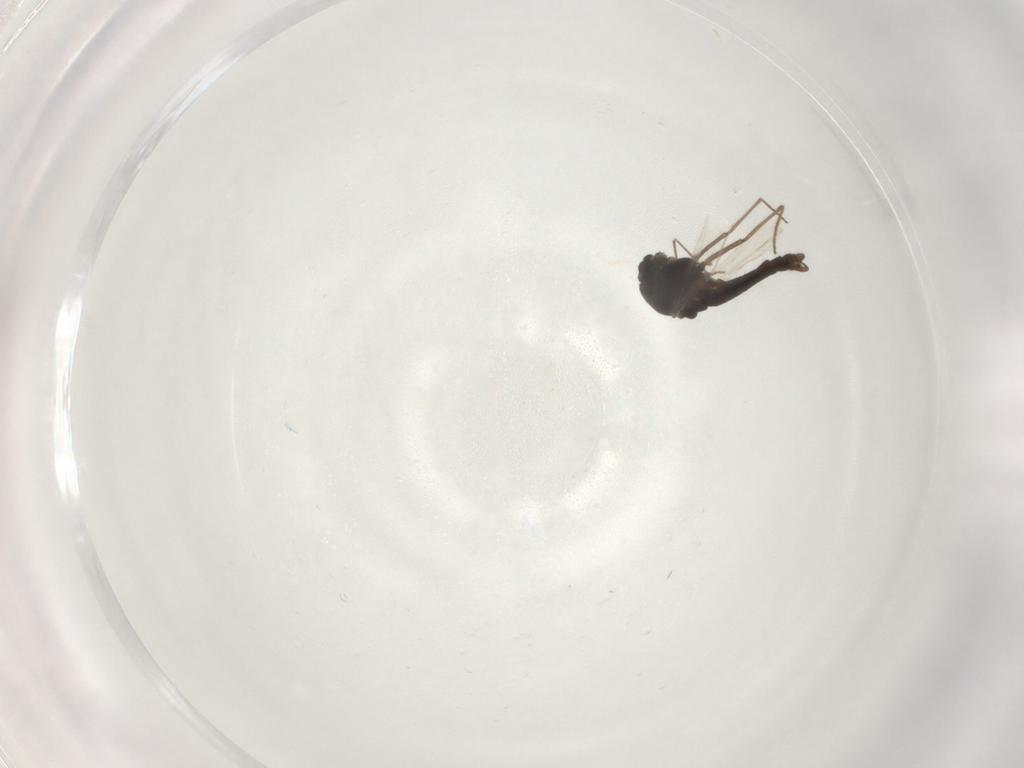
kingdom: Animalia
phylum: Arthropoda
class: Insecta
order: Diptera
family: Chironomidae
